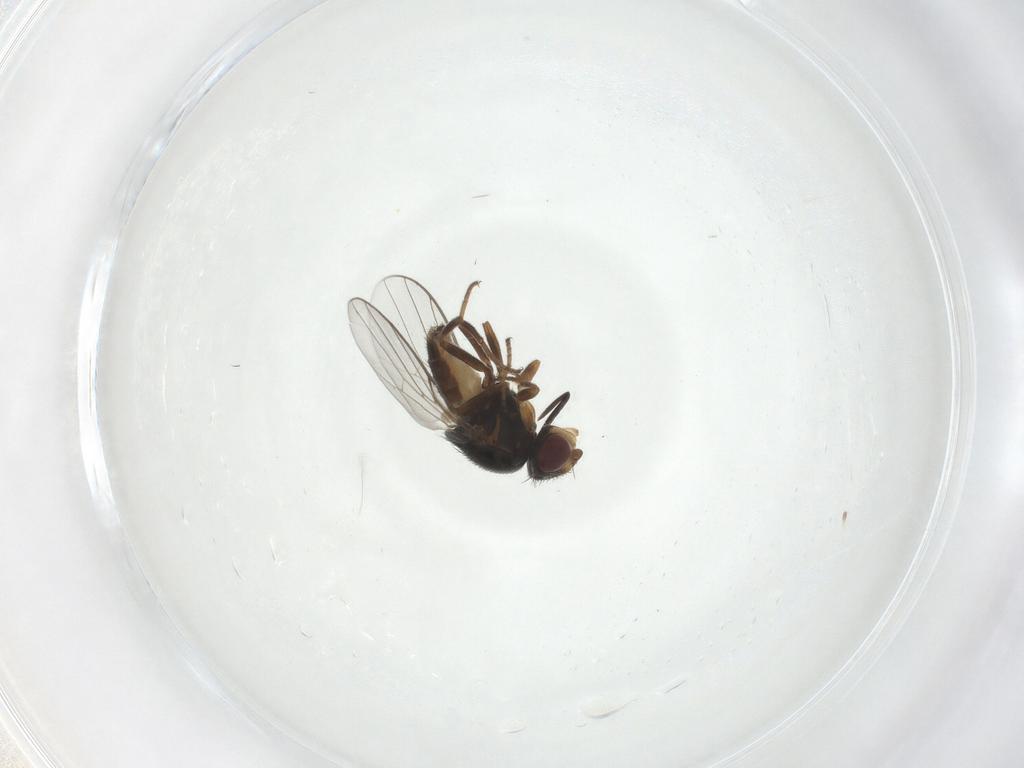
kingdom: Animalia
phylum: Arthropoda
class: Insecta
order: Diptera
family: Chloropidae
